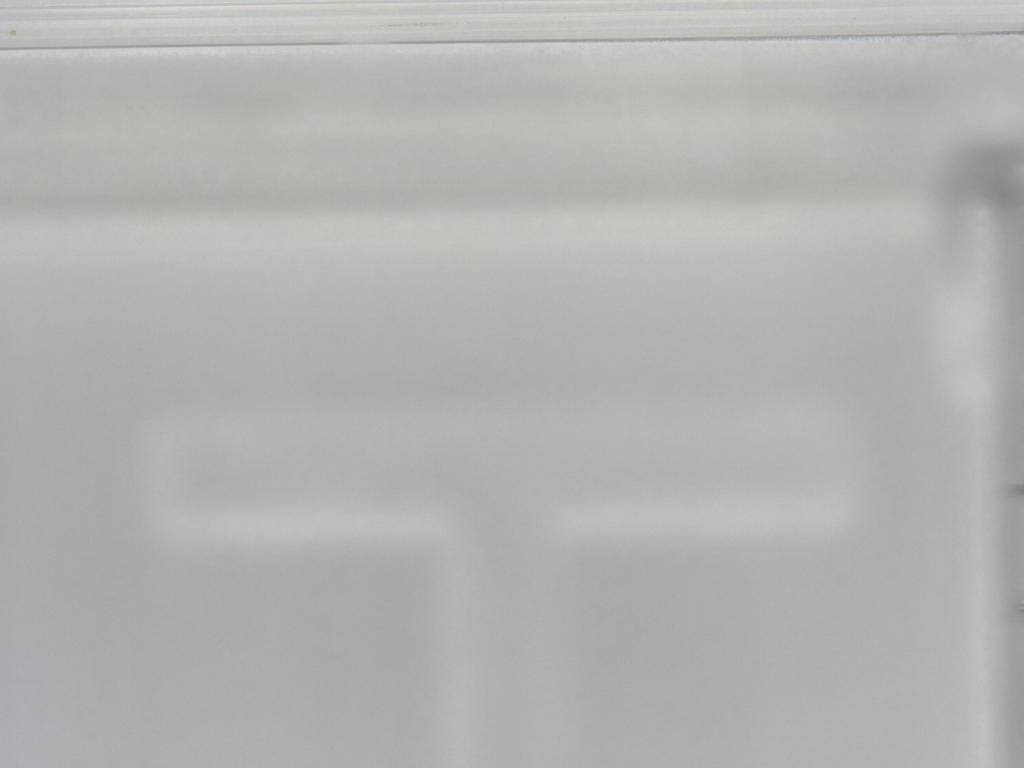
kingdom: Animalia
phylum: Arthropoda
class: Insecta
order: Diptera
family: Sciaridae
